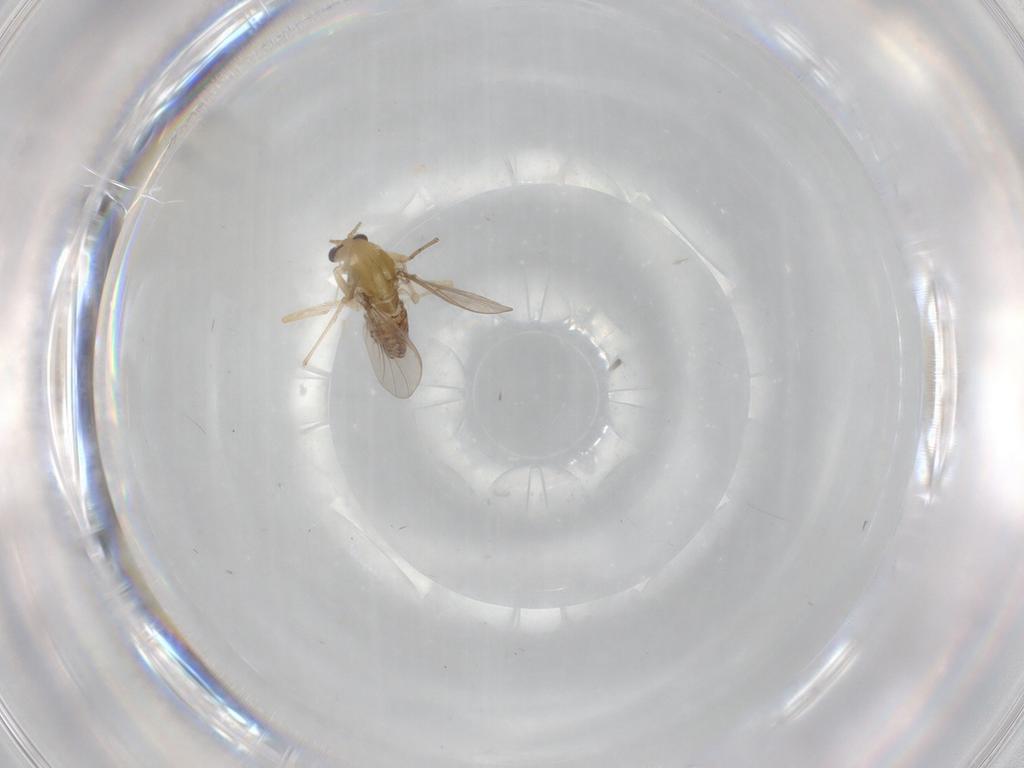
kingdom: Animalia
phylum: Arthropoda
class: Insecta
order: Diptera
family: Chironomidae
